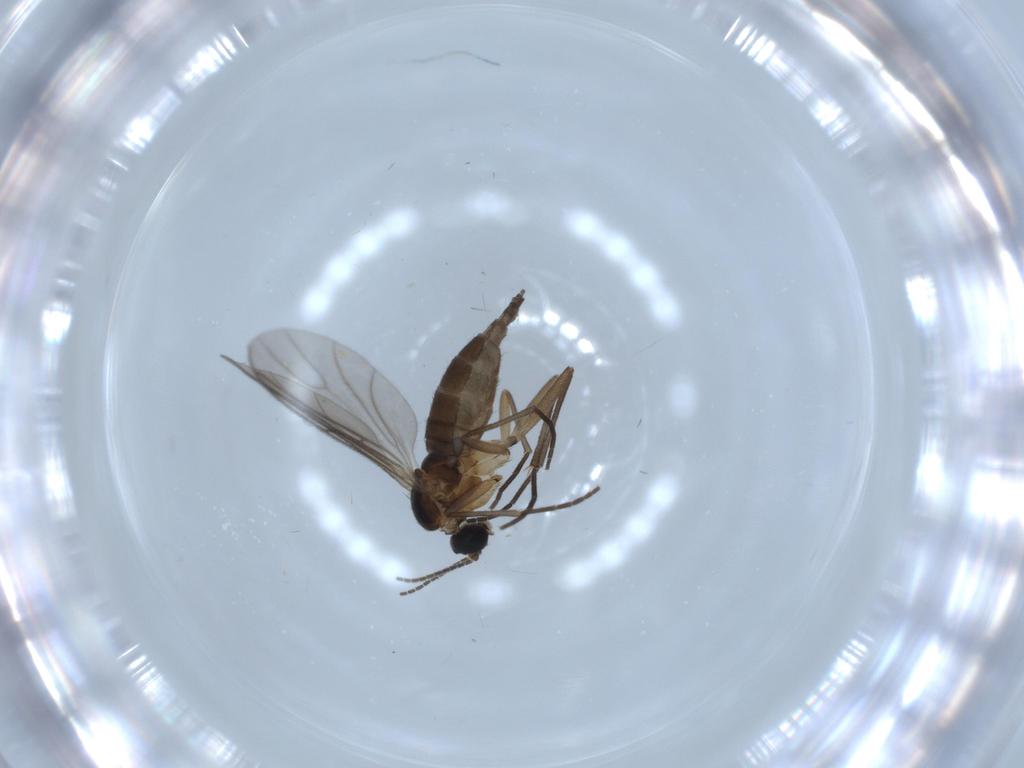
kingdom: Animalia
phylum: Arthropoda
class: Insecta
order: Diptera
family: Sciaridae
